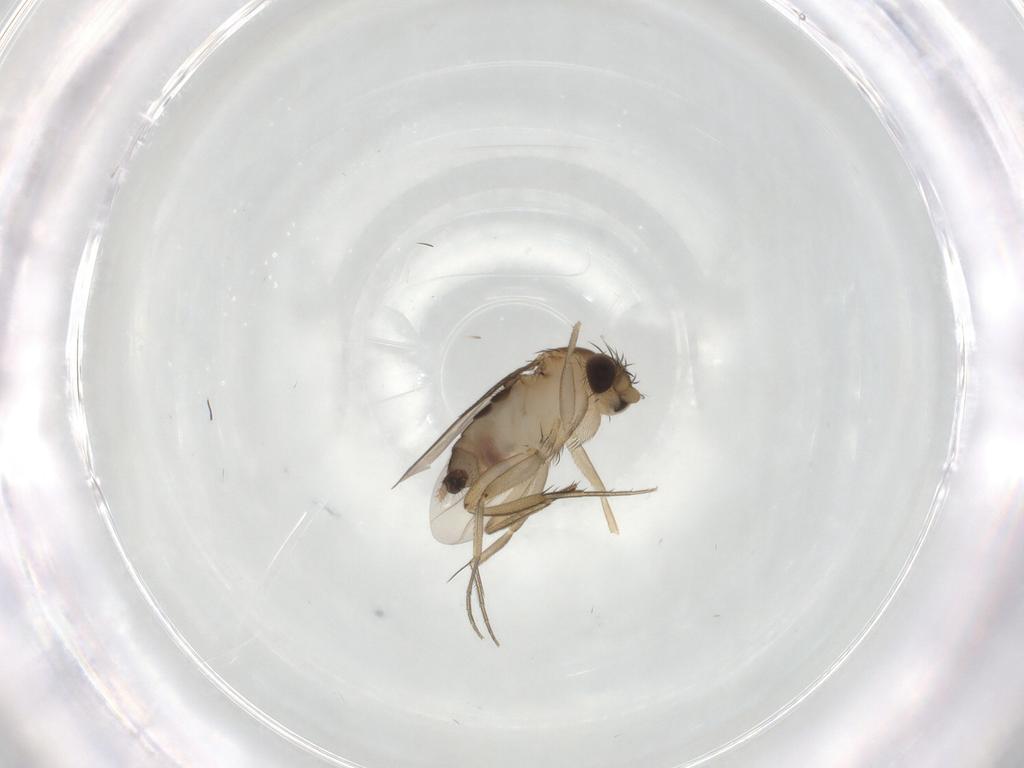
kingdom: Animalia
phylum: Arthropoda
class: Insecta
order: Diptera
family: Phoridae
